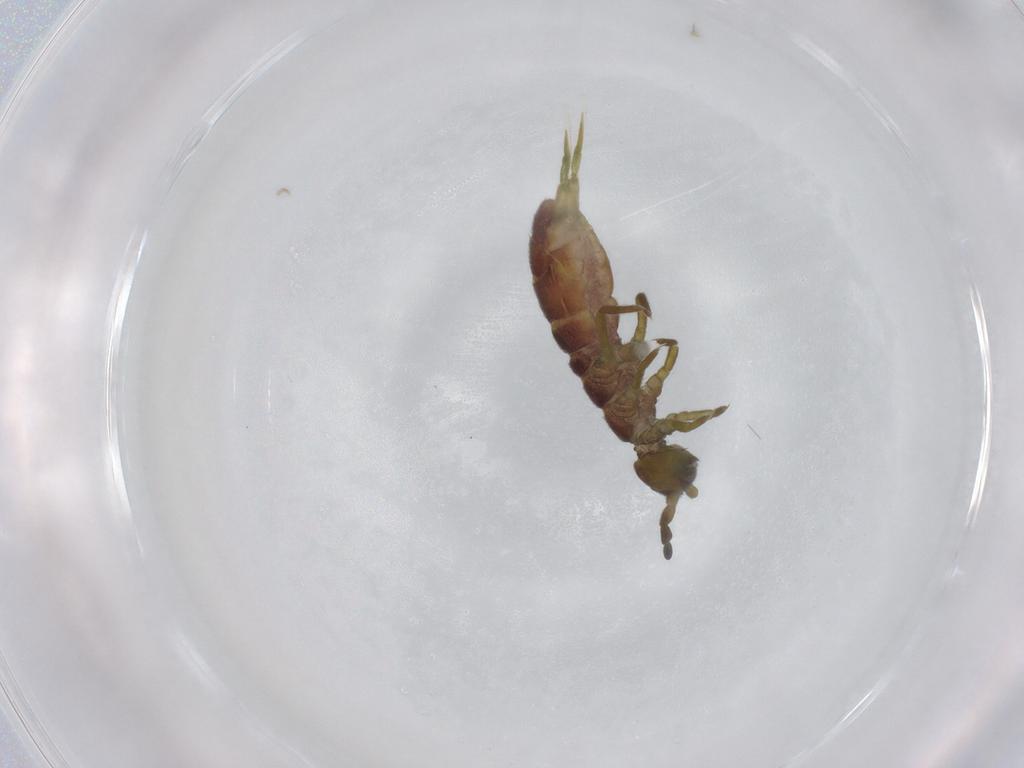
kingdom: Animalia
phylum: Arthropoda
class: Collembola
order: Entomobryomorpha
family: Isotomidae
